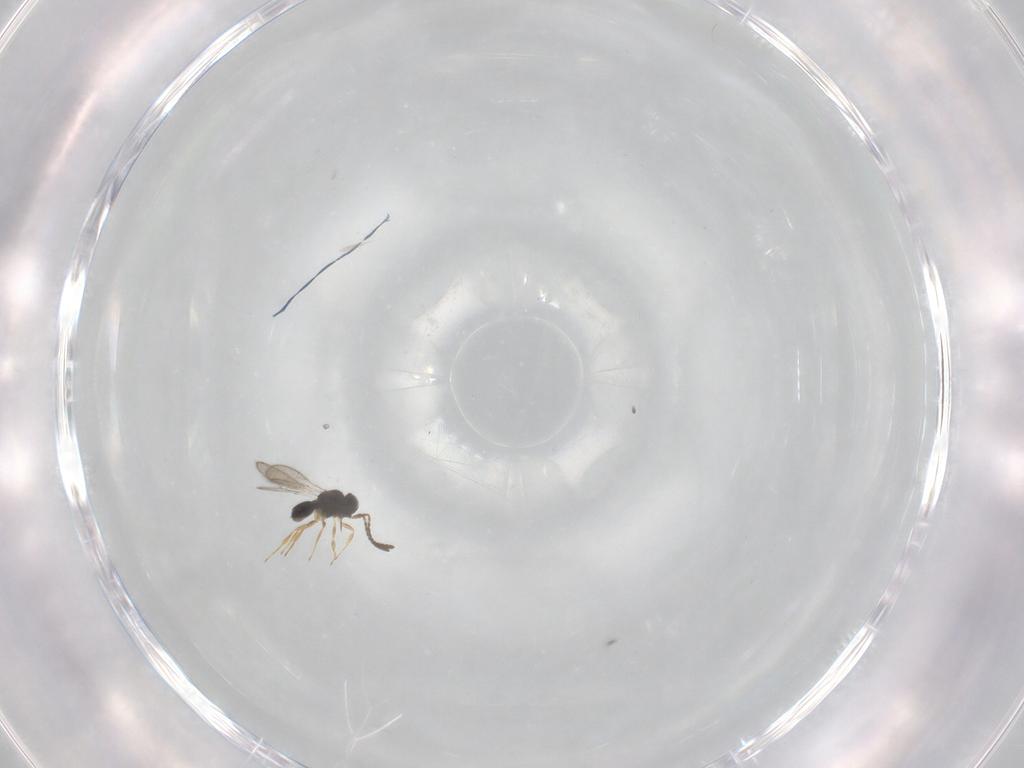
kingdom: Animalia
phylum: Arthropoda
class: Insecta
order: Hymenoptera
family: Scelionidae
